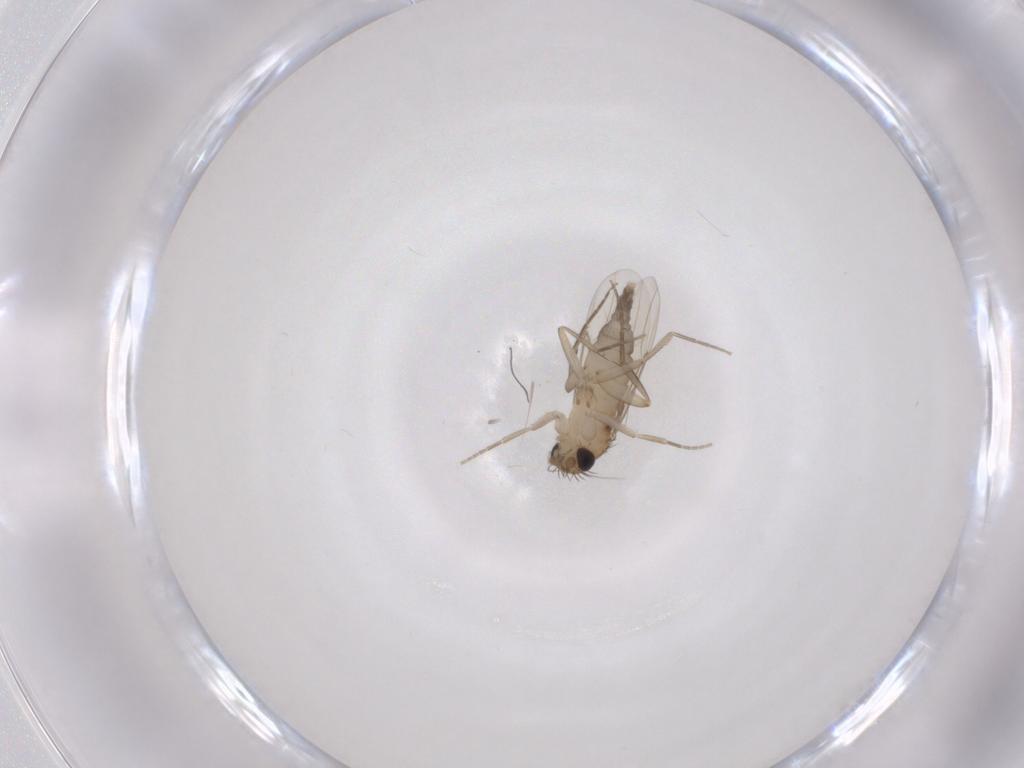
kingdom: Animalia
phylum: Arthropoda
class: Insecta
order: Diptera
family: Phoridae
